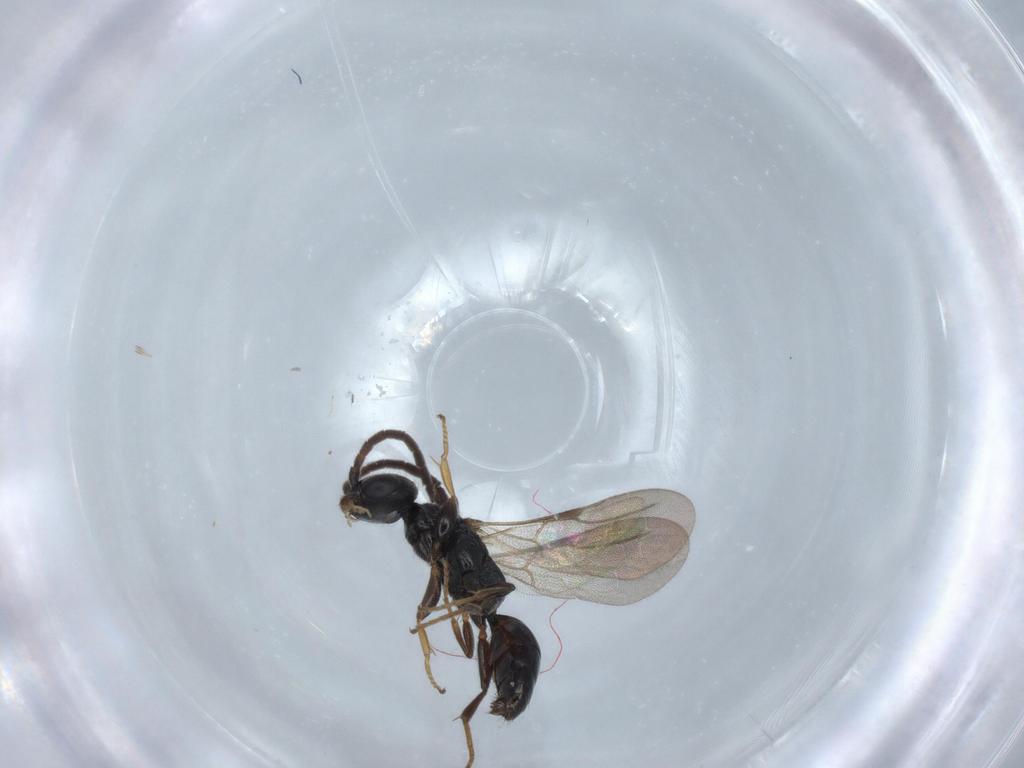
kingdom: Animalia
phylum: Arthropoda
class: Insecta
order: Hymenoptera
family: Bethylidae
